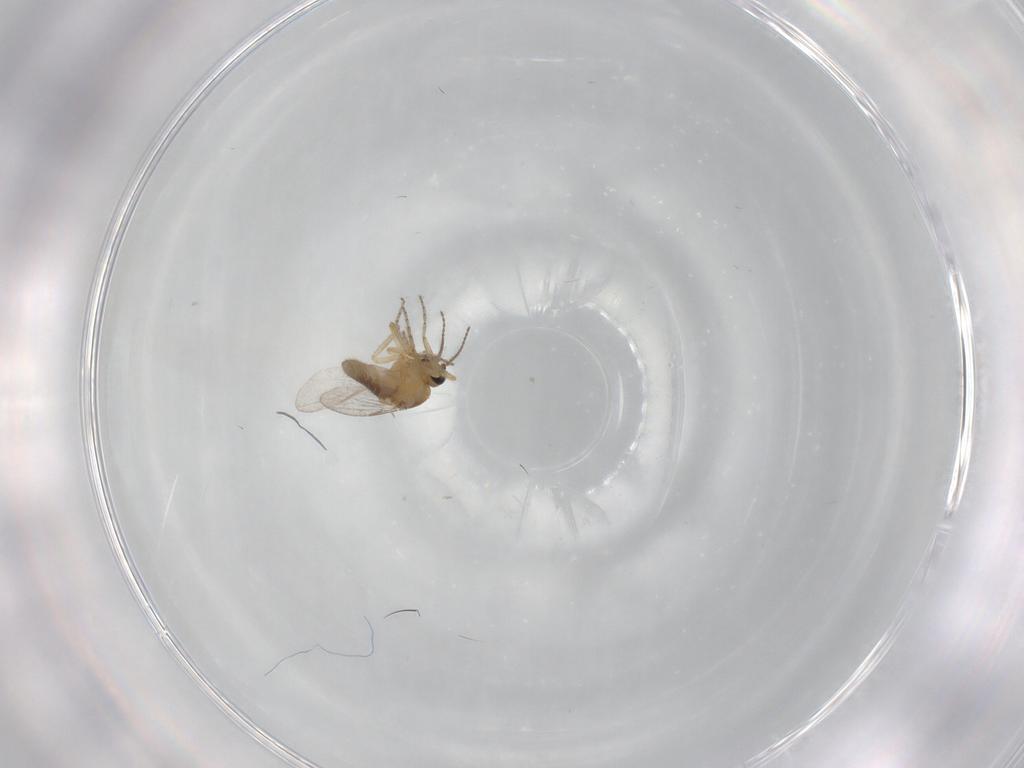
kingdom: Animalia
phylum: Arthropoda
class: Insecta
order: Diptera
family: Ceratopogonidae
